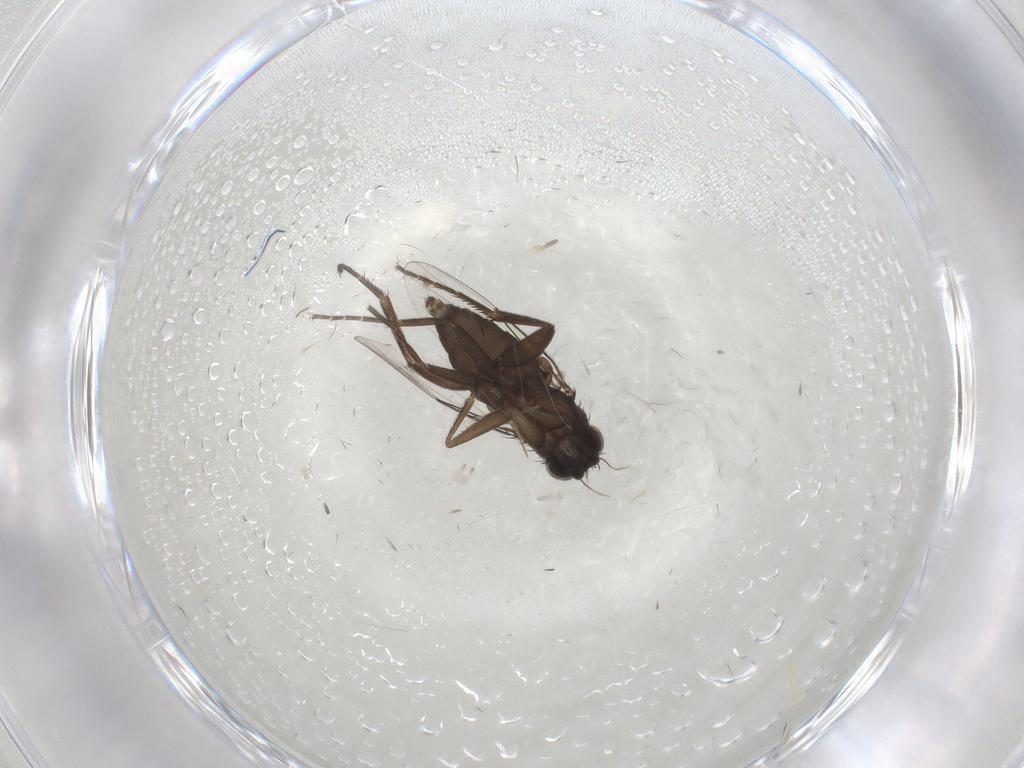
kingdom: Animalia
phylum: Arthropoda
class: Insecta
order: Diptera
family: Phoridae
